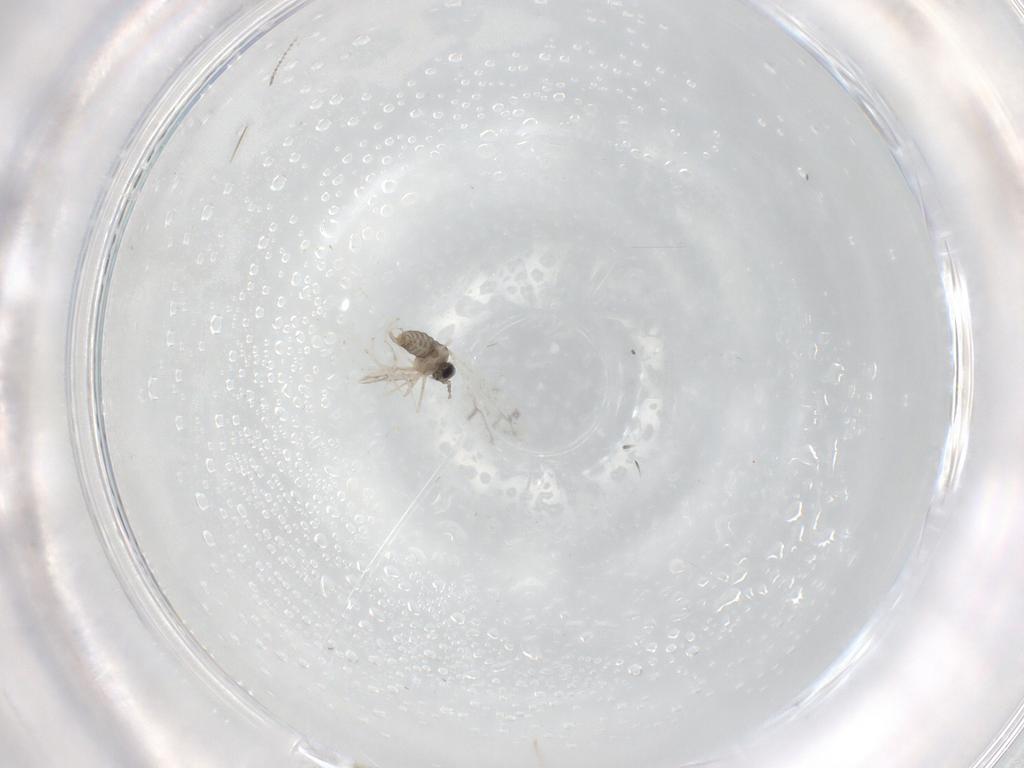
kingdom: Animalia
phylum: Arthropoda
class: Insecta
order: Diptera
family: Cecidomyiidae
